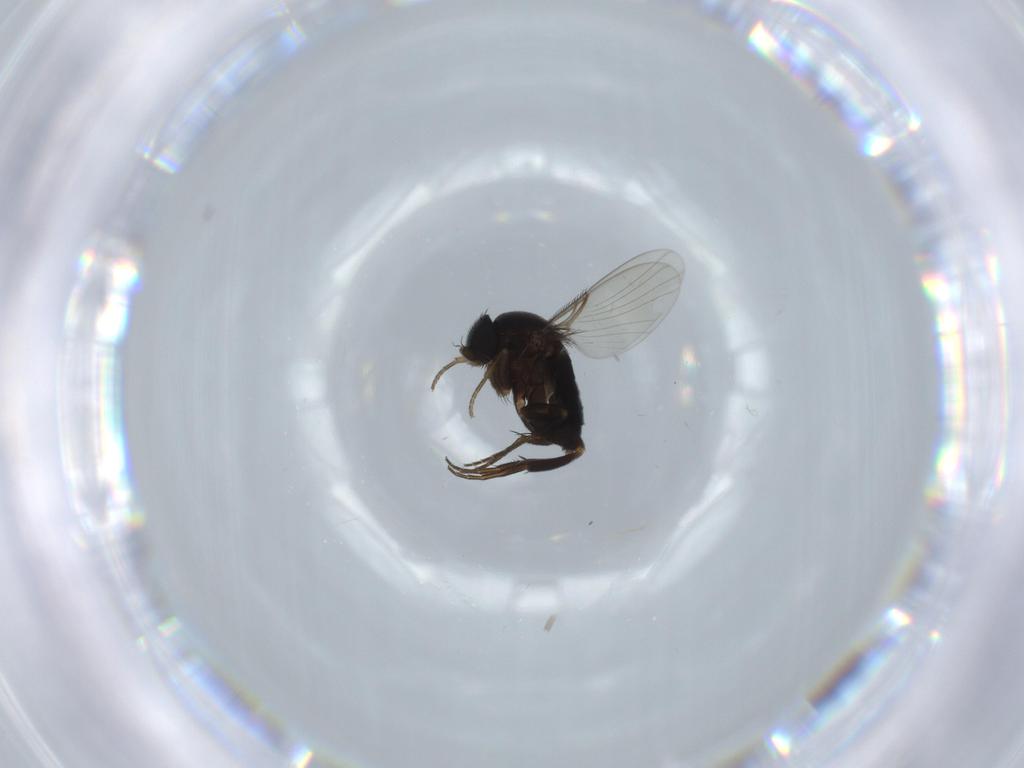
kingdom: Animalia
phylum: Arthropoda
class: Insecta
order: Diptera
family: Phoridae
